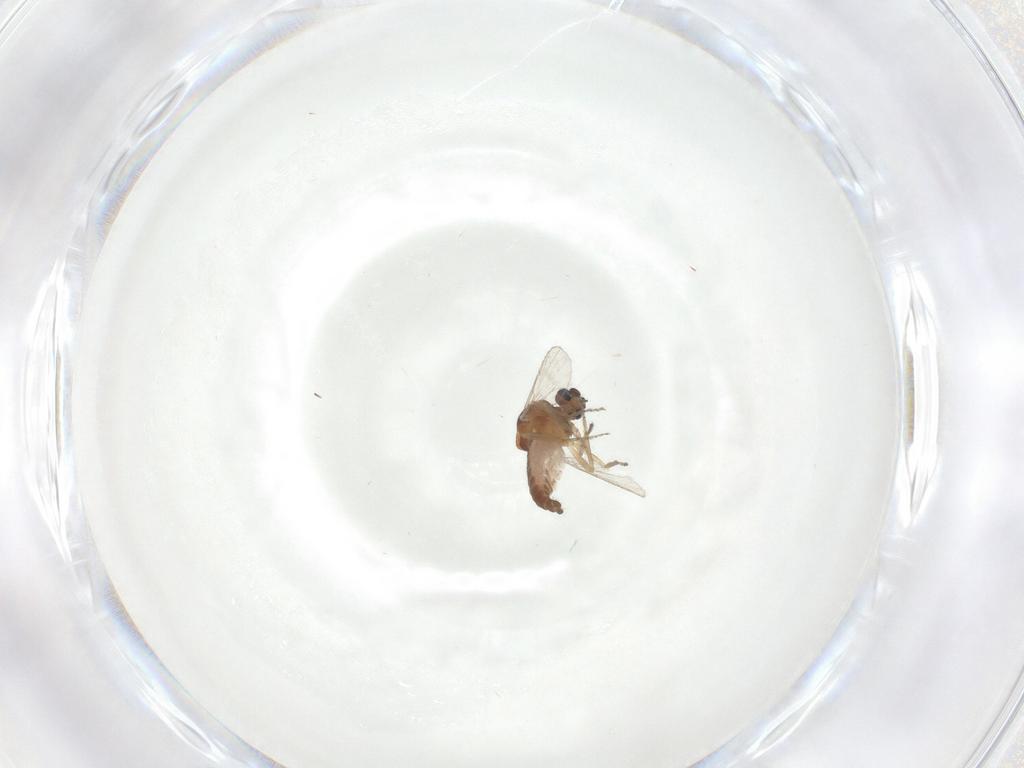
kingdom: Animalia
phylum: Arthropoda
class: Insecta
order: Diptera
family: Ceratopogonidae
